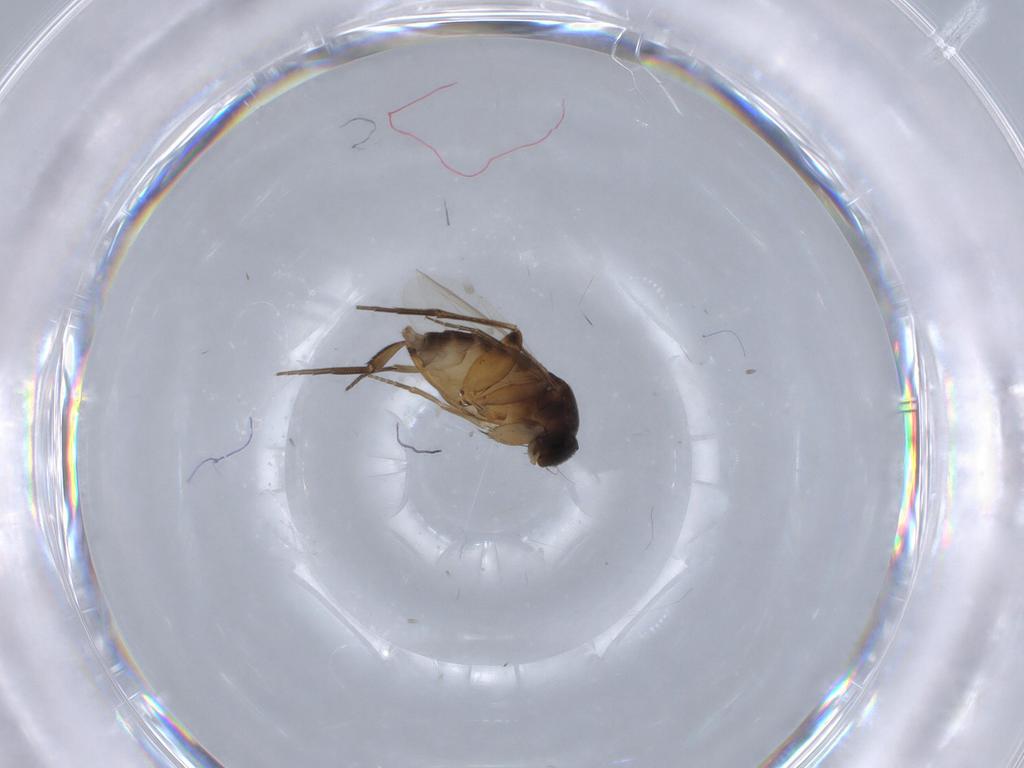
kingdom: Animalia
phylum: Arthropoda
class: Insecta
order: Diptera
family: Phoridae
